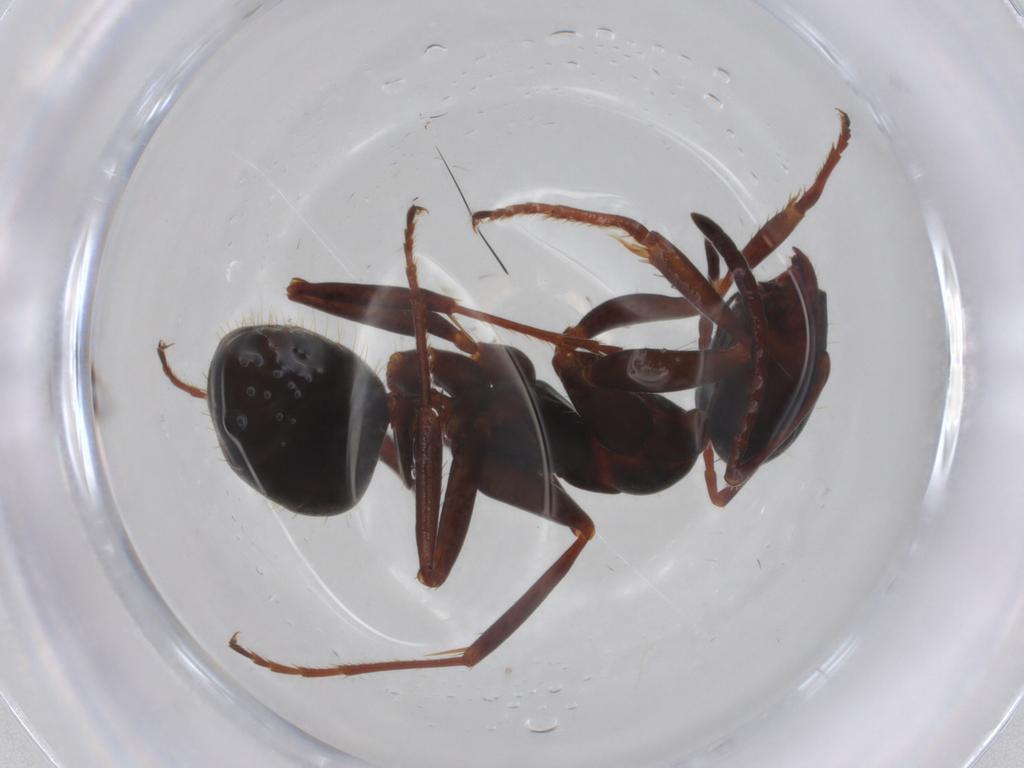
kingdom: Animalia
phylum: Arthropoda
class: Insecta
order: Hymenoptera
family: Formicidae
